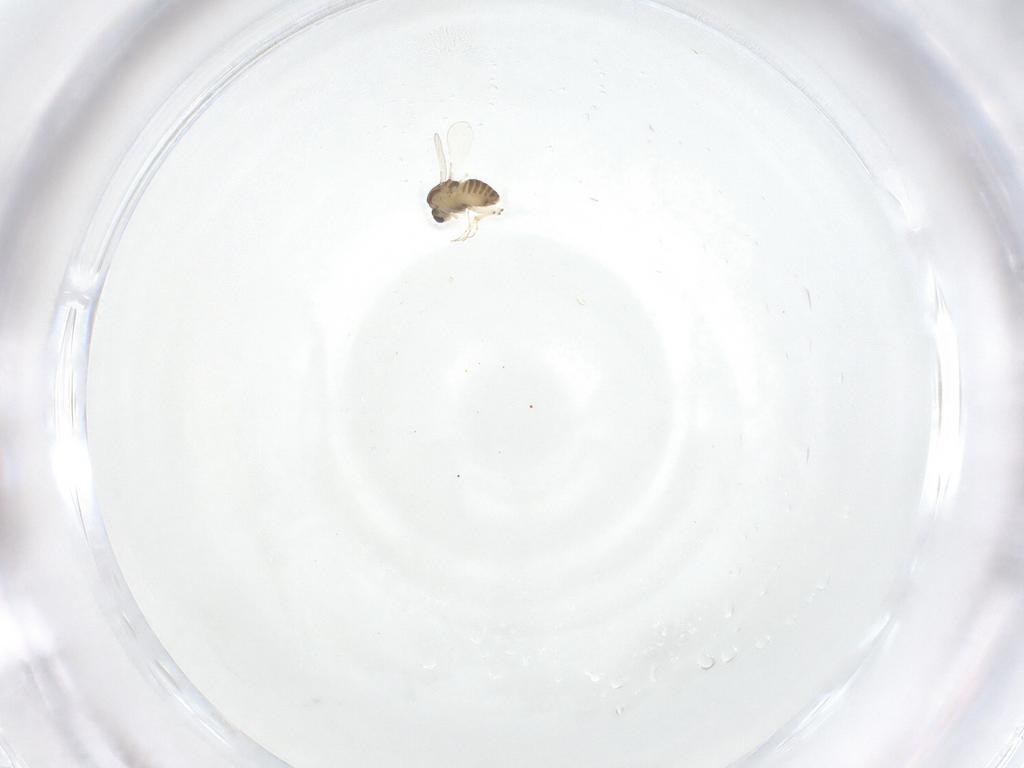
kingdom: Animalia
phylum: Arthropoda
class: Insecta
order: Diptera
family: Chironomidae
